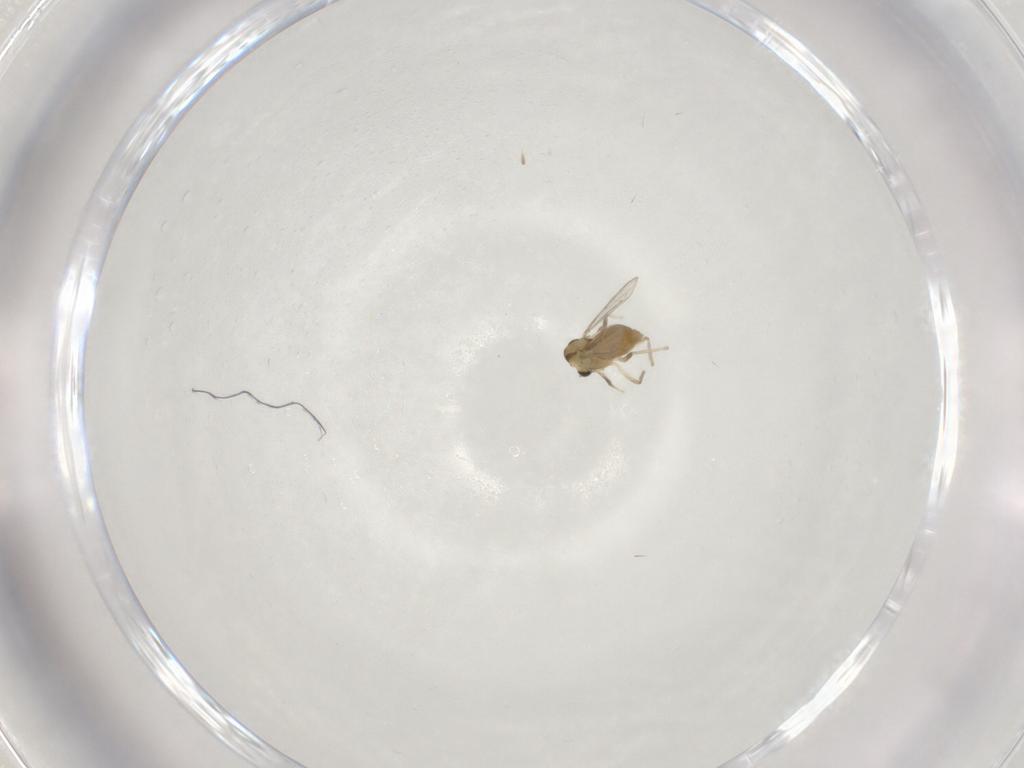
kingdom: Animalia
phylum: Arthropoda
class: Insecta
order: Diptera
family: Chironomidae
